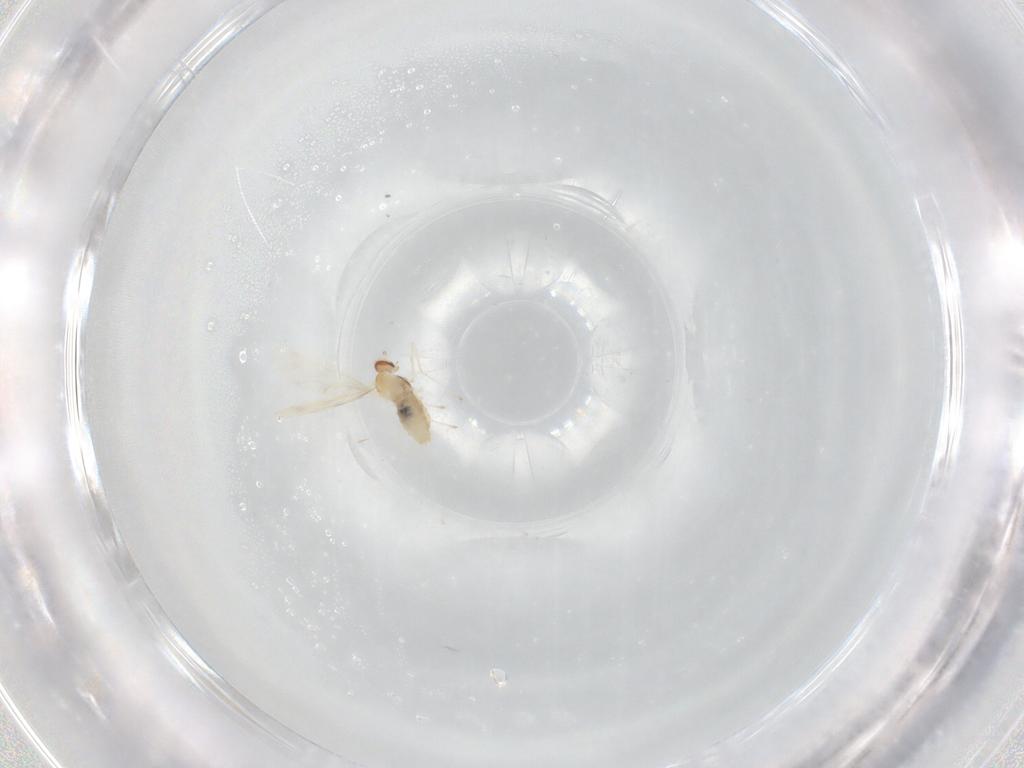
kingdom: Animalia
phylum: Arthropoda
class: Insecta
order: Diptera
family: Cecidomyiidae
